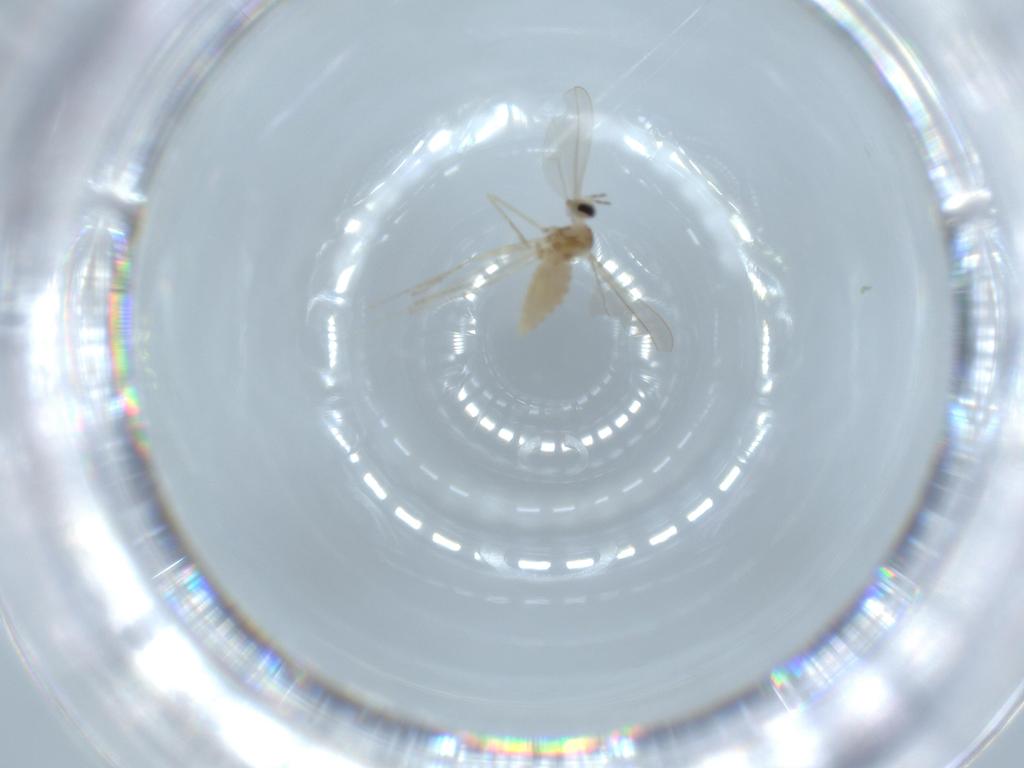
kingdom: Animalia
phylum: Arthropoda
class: Insecta
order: Diptera
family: Cecidomyiidae
